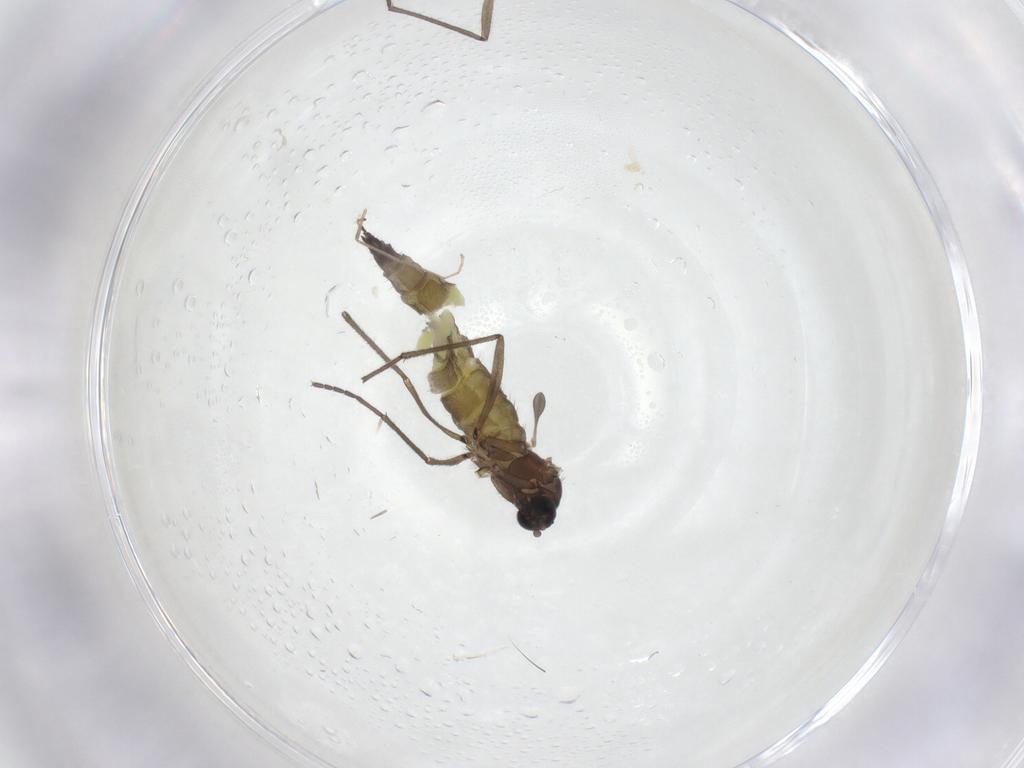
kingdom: Animalia
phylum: Arthropoda
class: Insecta
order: Diptera
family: Sciaridae
